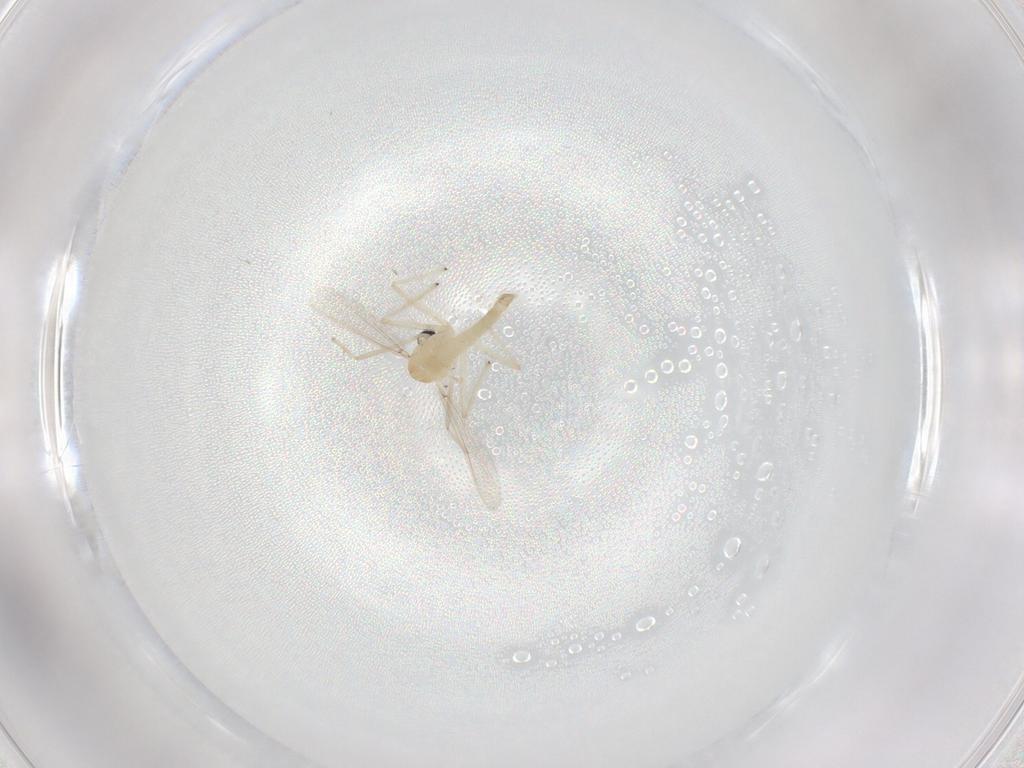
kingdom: Animalia
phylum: Arthropoda
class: Insecta
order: Diptera
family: Chironomidae
